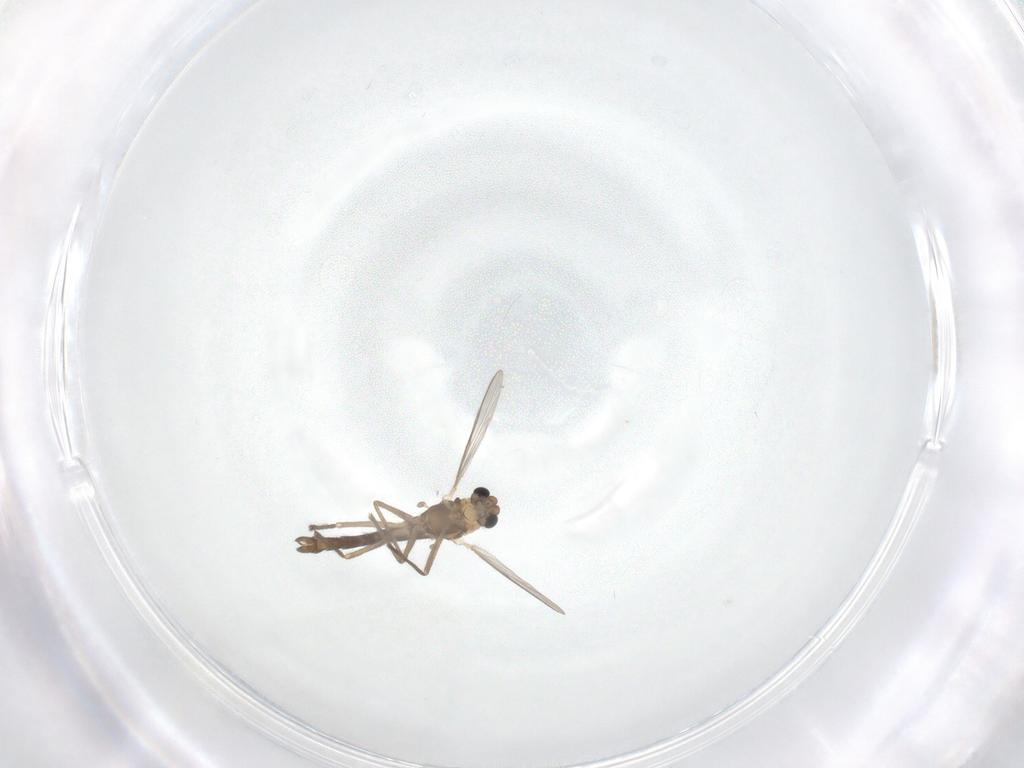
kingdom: Animalia
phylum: Arthropoda
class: Insecta
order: Diptera
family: Chironomidae
